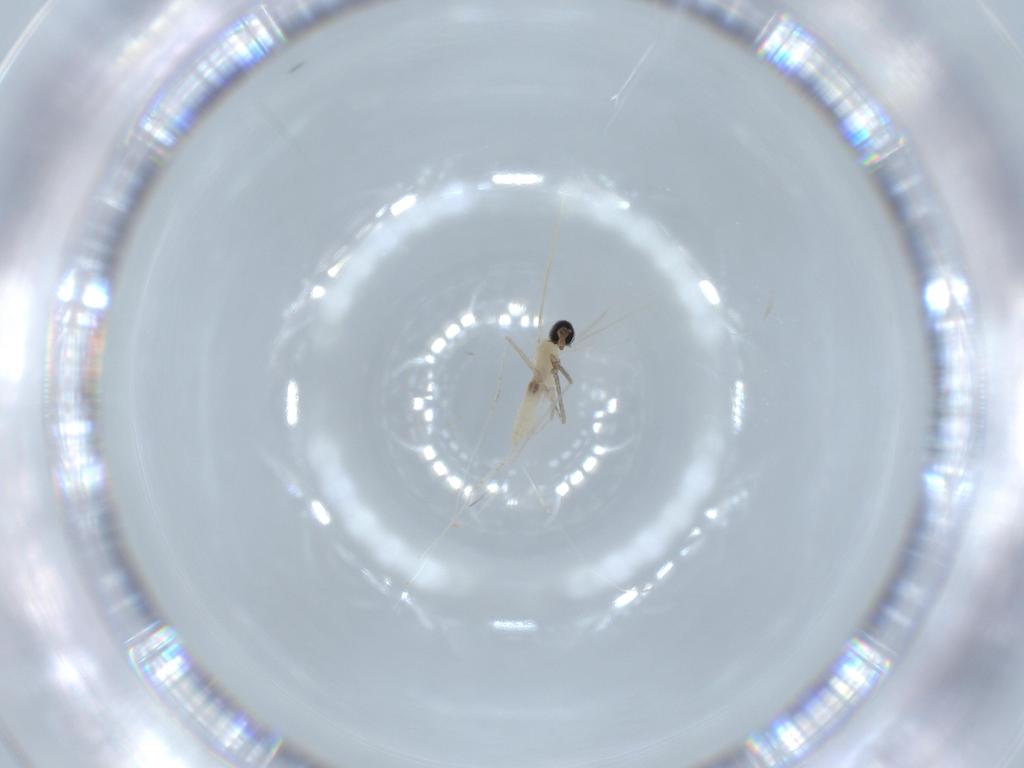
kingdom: Animalia
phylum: Arthropoda
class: Insecta
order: Diptera
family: Cecidomyiidae
